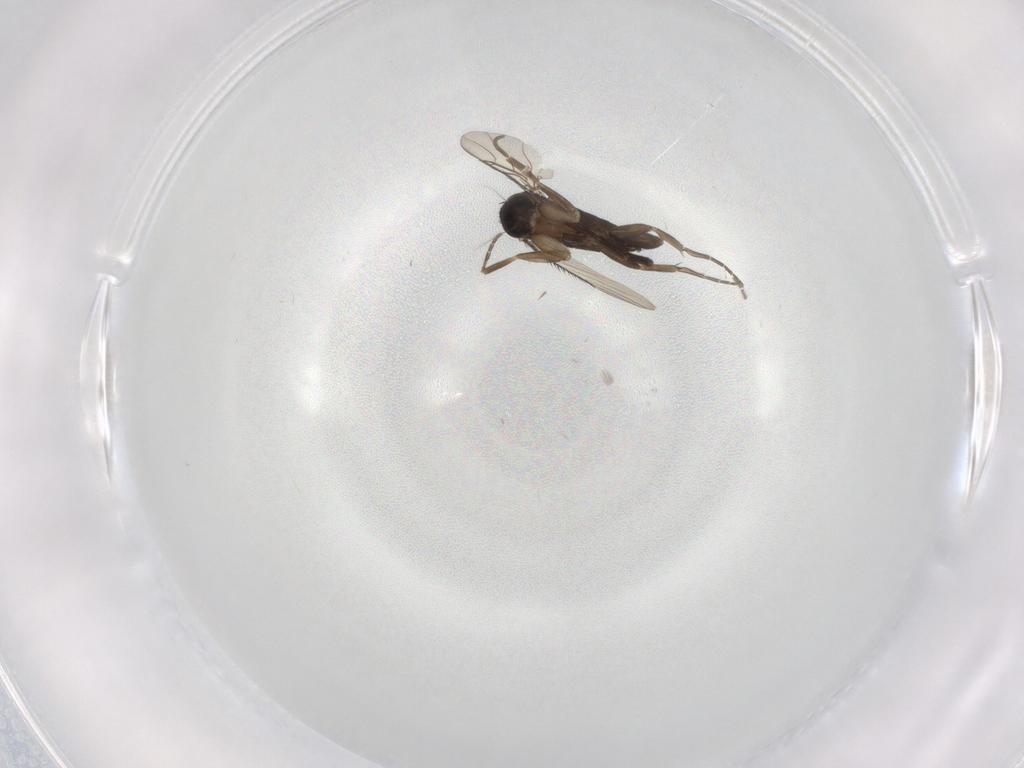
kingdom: Animalia
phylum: Arthropoda
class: Insecta
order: Diptera
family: Phoridae
